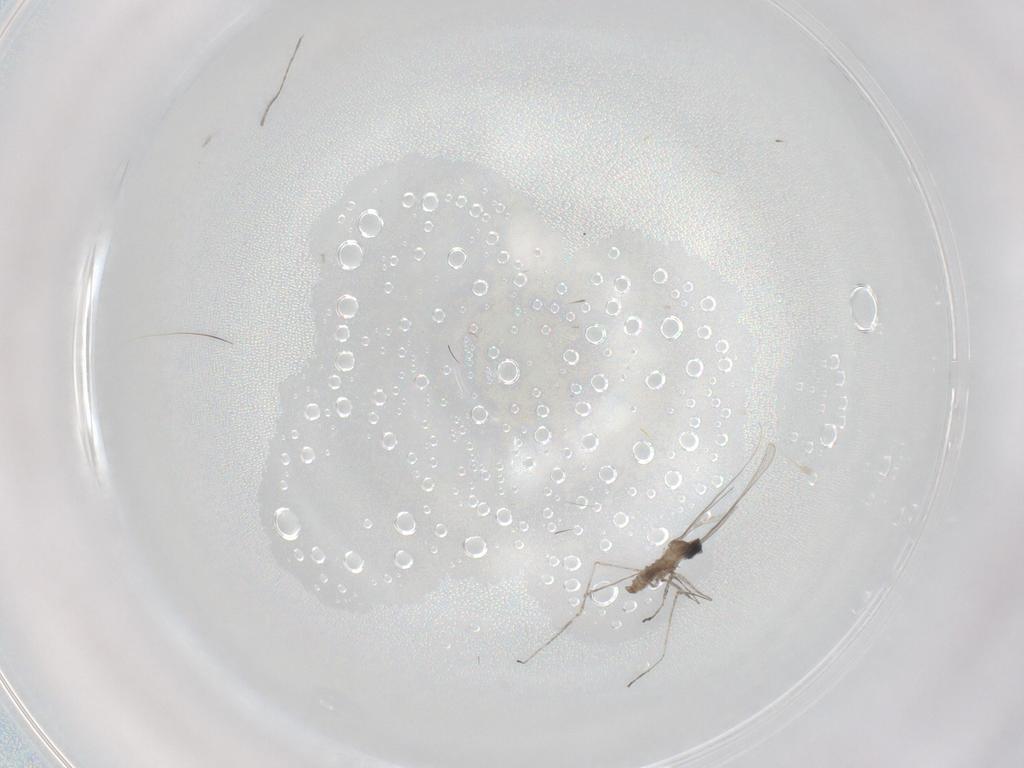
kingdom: Animalia
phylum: Arthropoda
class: Insecta
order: Diptera
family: Cecidomyiidae
